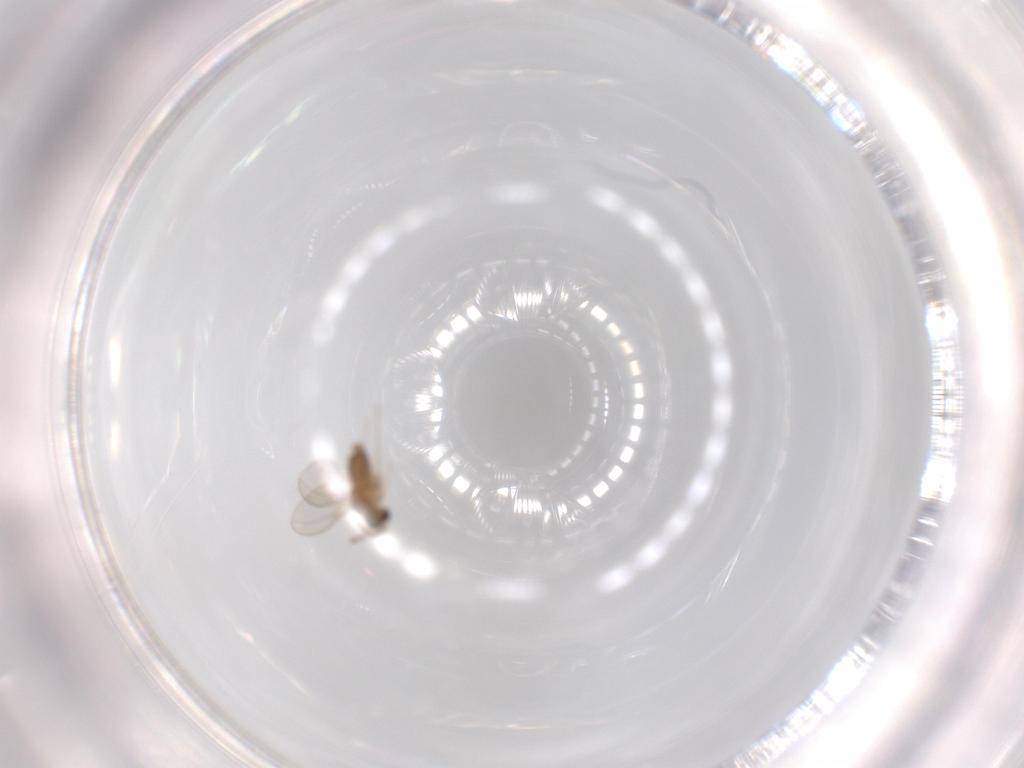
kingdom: Animalia
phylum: Arthropoda
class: Insecta
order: Diptera
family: Cecidomyiidae
